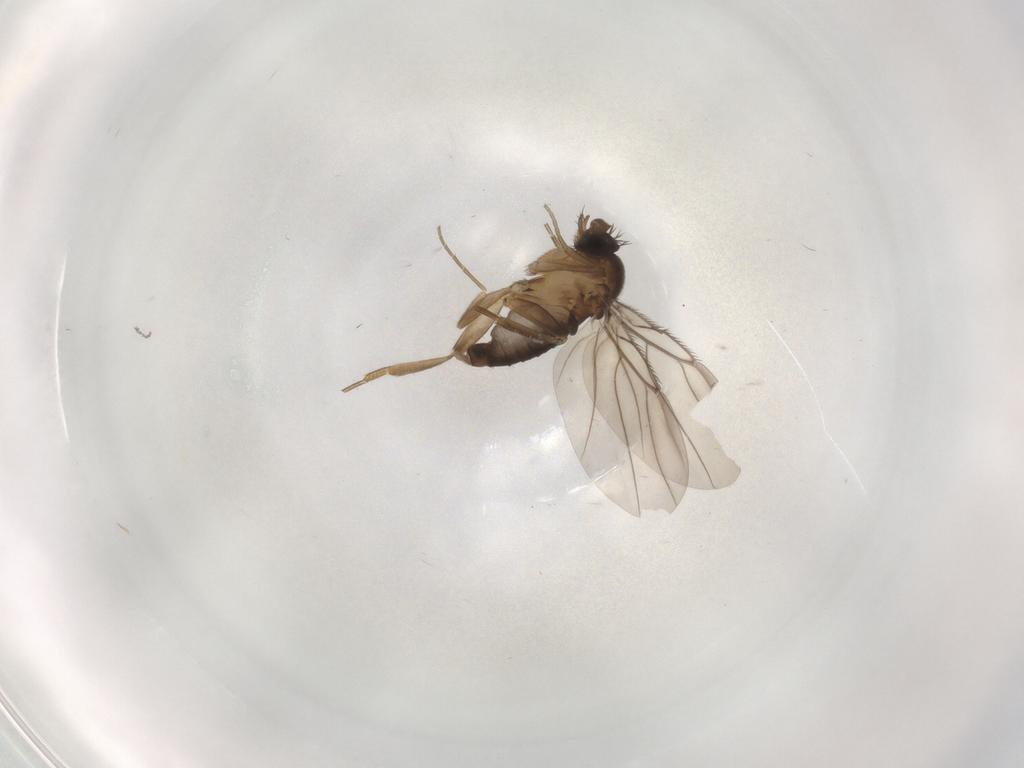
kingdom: Animalia
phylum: Arthropoda
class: Insecta
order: Diptera
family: Phoridae
